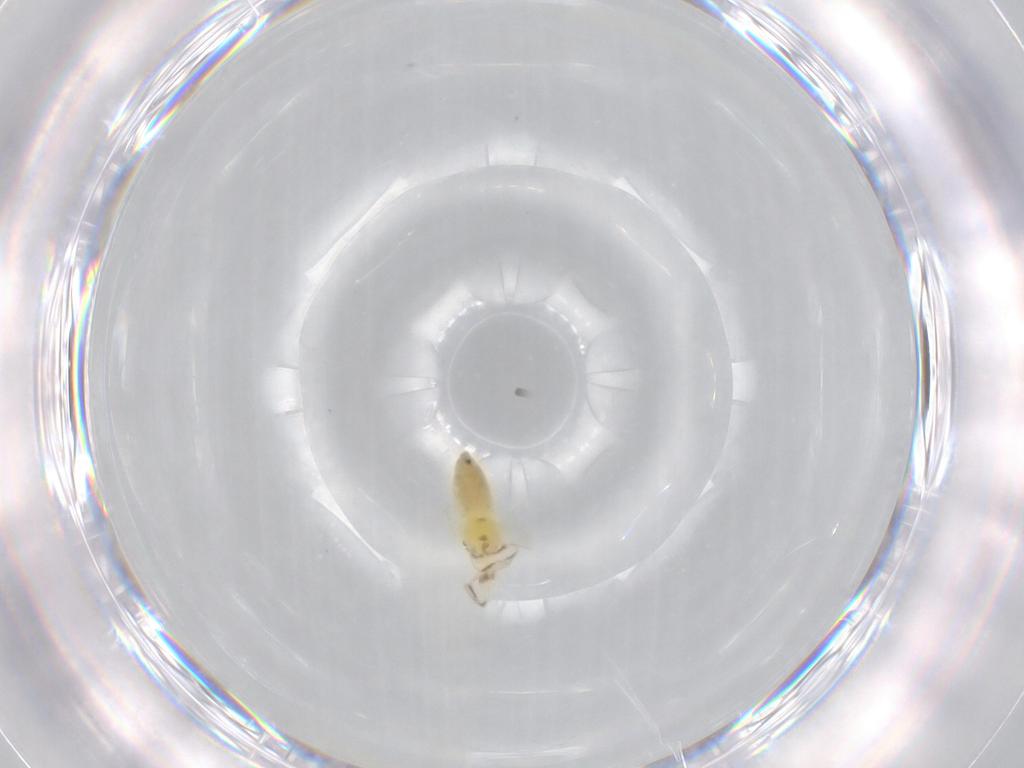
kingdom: Animalia
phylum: Arthropoda
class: Insecta
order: Hemiptera
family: Aleyrodidae
